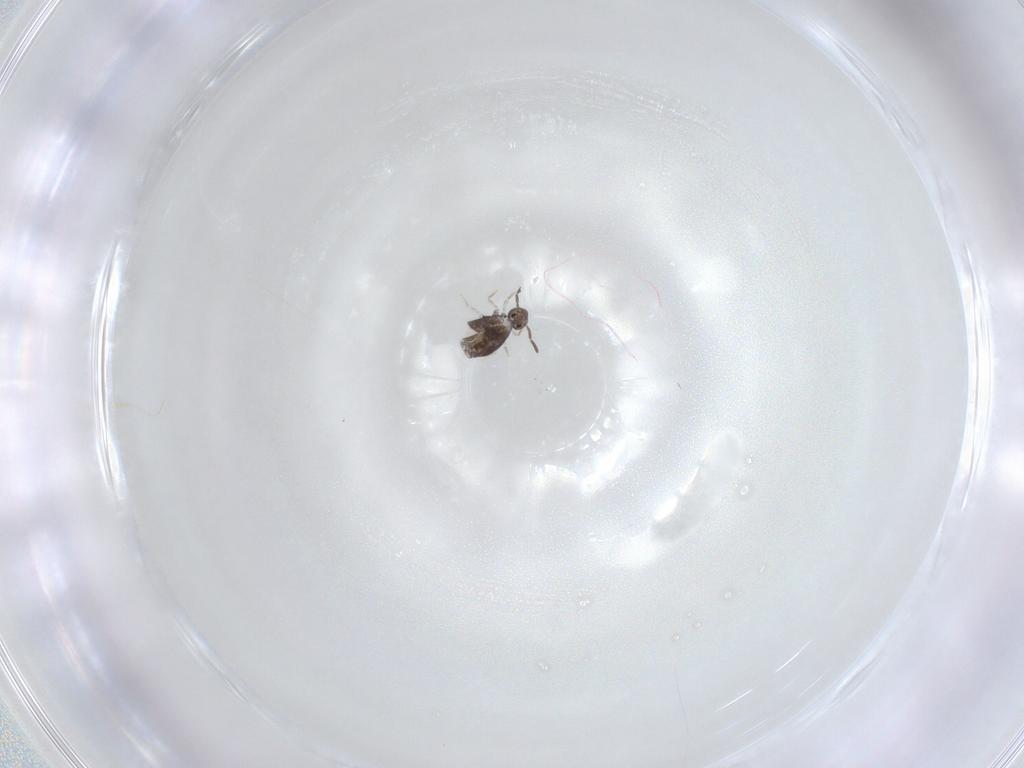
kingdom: Animalia
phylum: Arthropoda
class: Collembola
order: Symphypleona
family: Katiannidae
